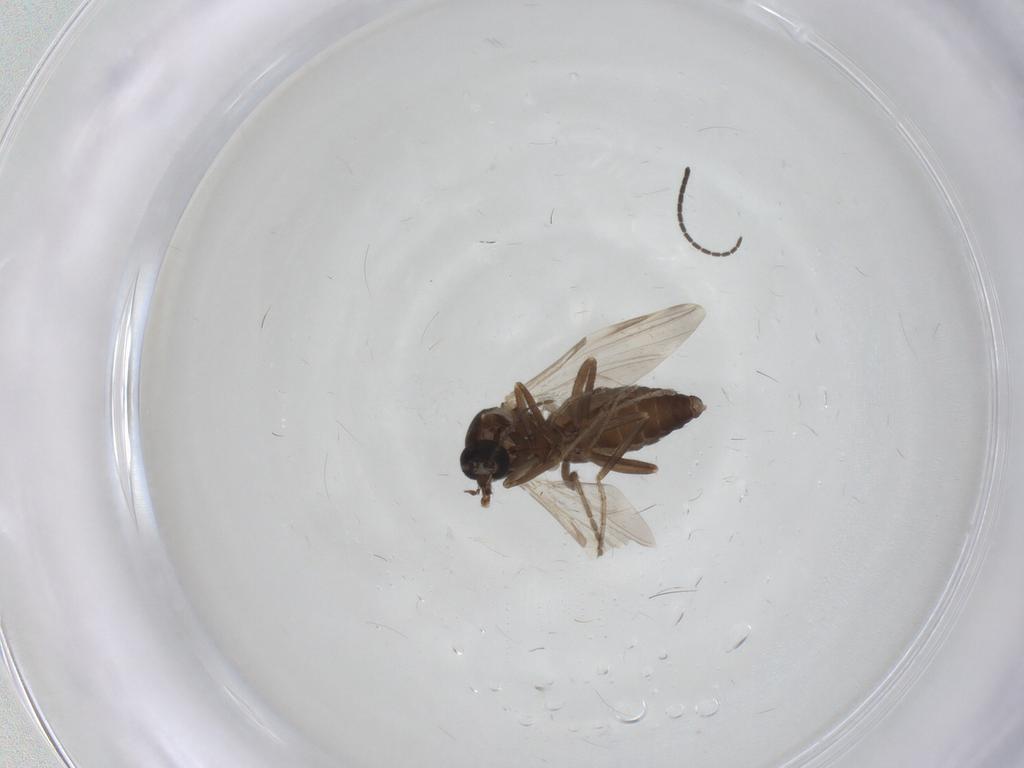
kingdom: Animalia
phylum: Arthropoda
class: Insecta
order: Diptera
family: Ceratopogonidae
